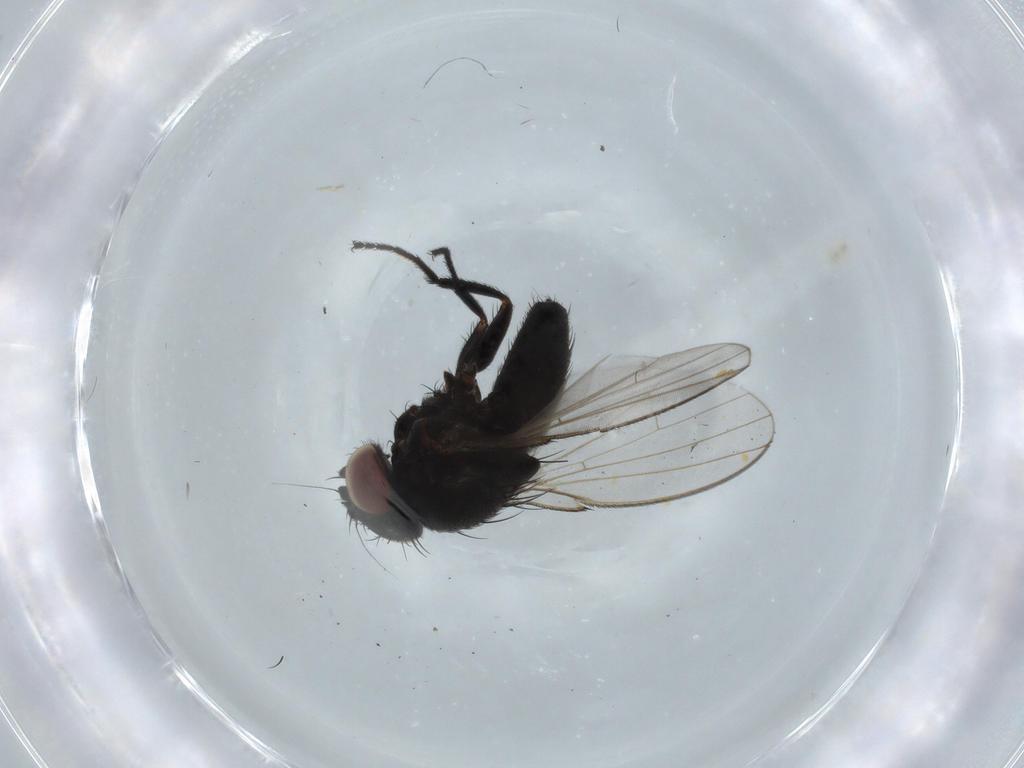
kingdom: Animalia
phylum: Arthropoda
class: Insecta
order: Diptera
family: Milichiidae
